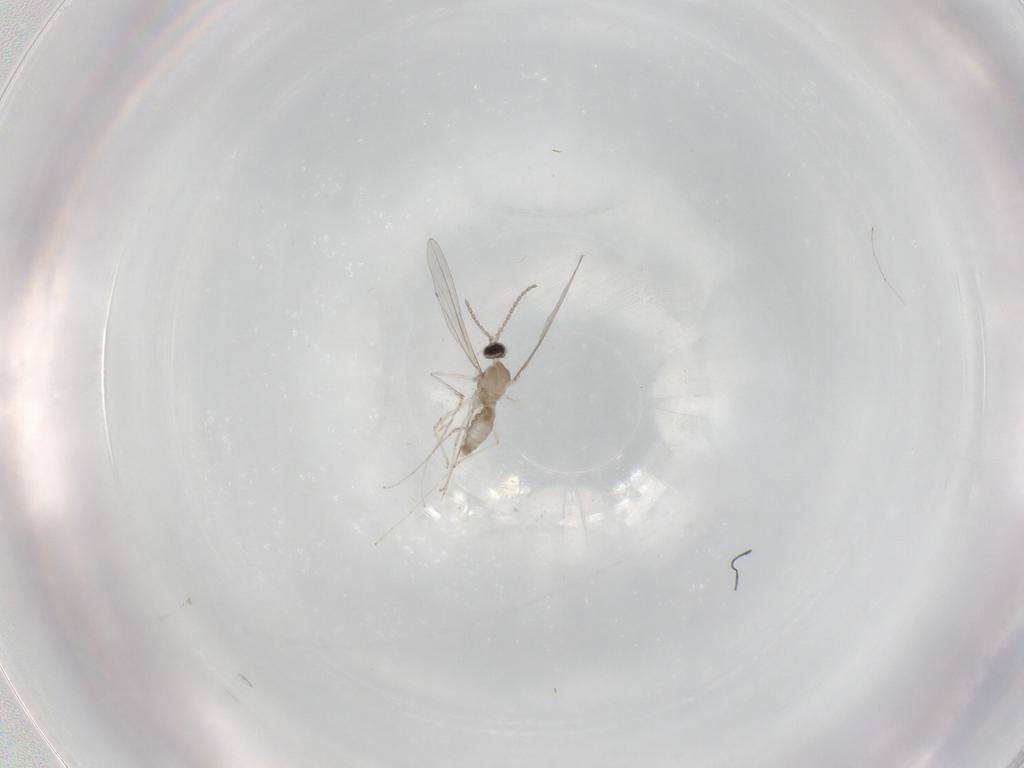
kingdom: Animalia
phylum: Arthropoda
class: Insecta
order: Diptera
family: Cecidomyiidae
